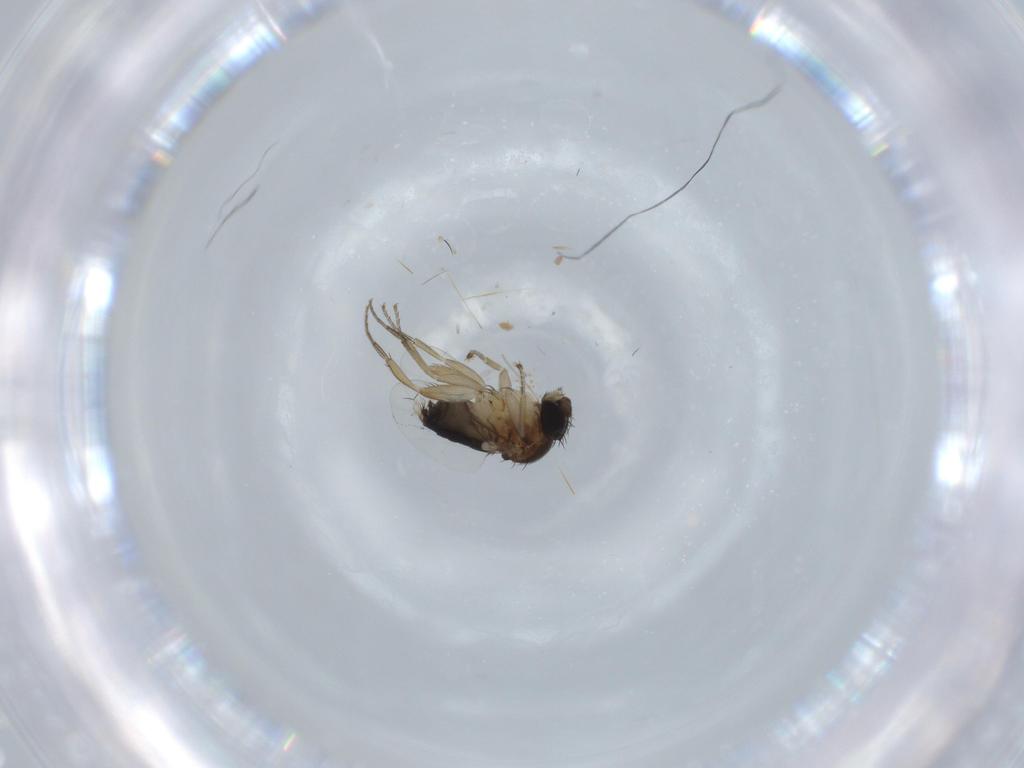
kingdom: Animalia
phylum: Arthropoda
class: Insecta
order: Diptera
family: Phoridae
